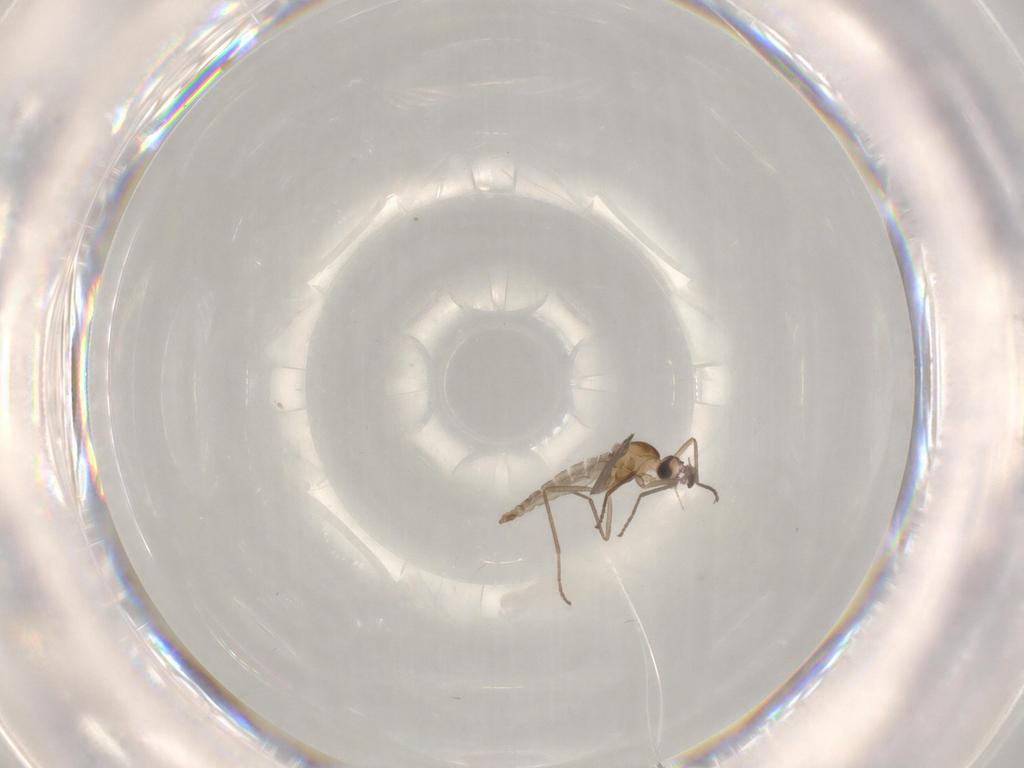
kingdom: Animalia
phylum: Arthropoda
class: Insecta
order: Diptera
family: Cecidomyiidae
